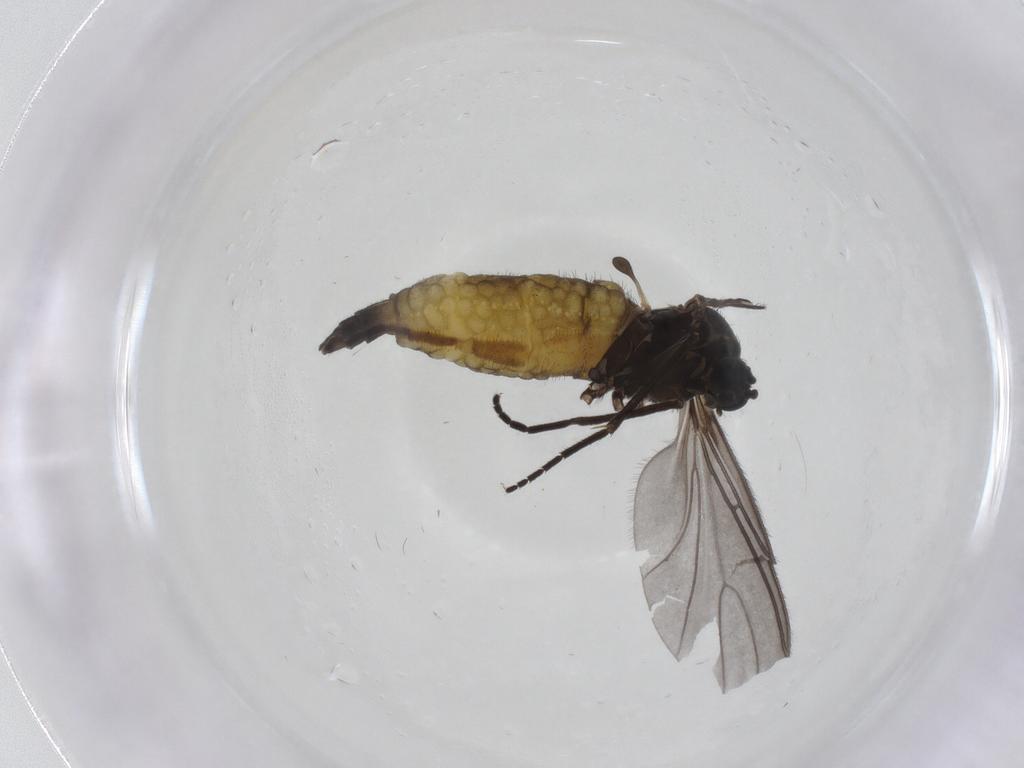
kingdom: Animalia
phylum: Arthropoda
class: Insecta
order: Diptera
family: Sciaridae
